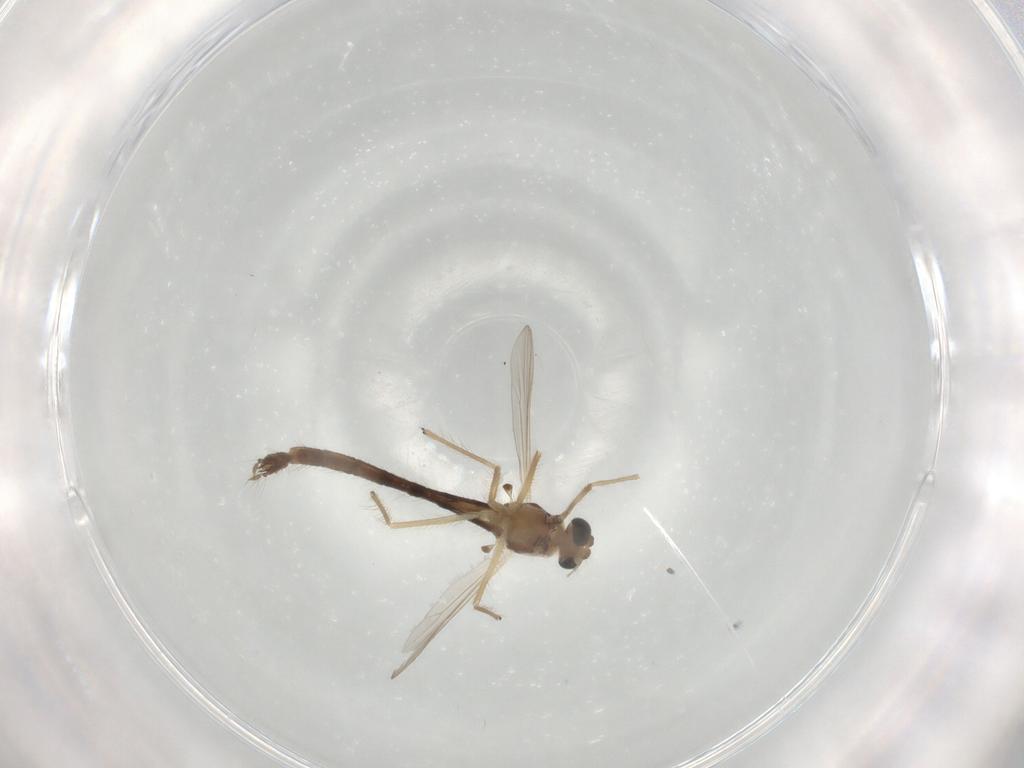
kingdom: Animalia
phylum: Arthropoda
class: Insecta
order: Diptera
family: Chironomidae
